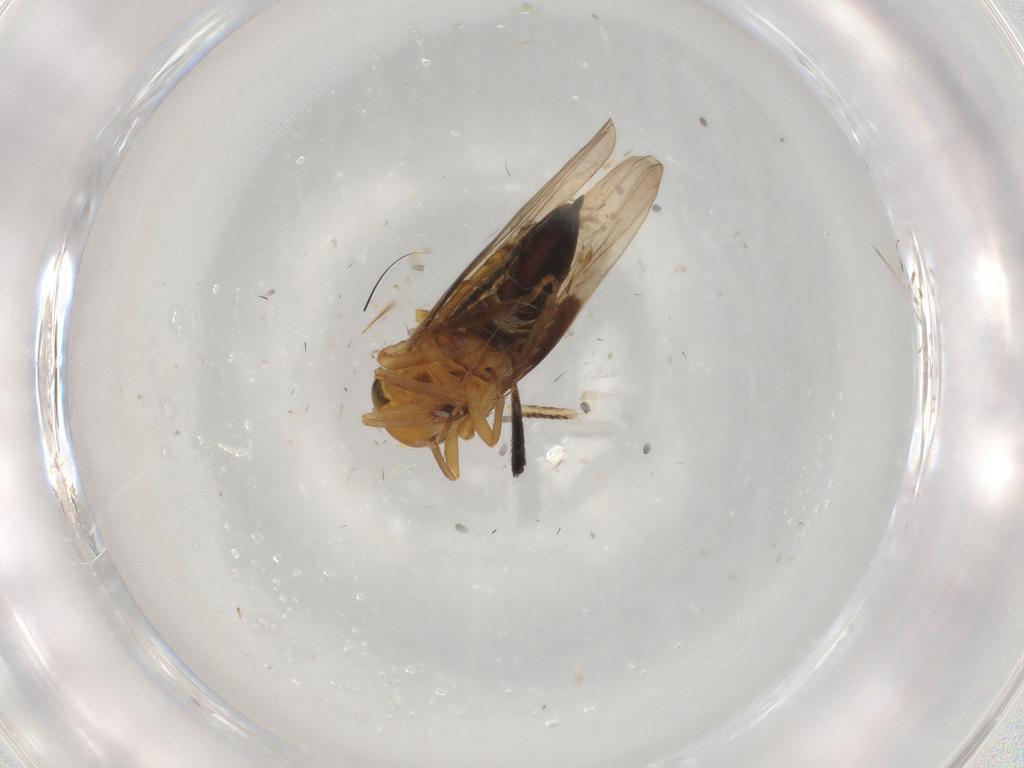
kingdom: Animalia
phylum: Arthropoda
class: Insecta
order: Hemiptera
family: Cicadellidae
